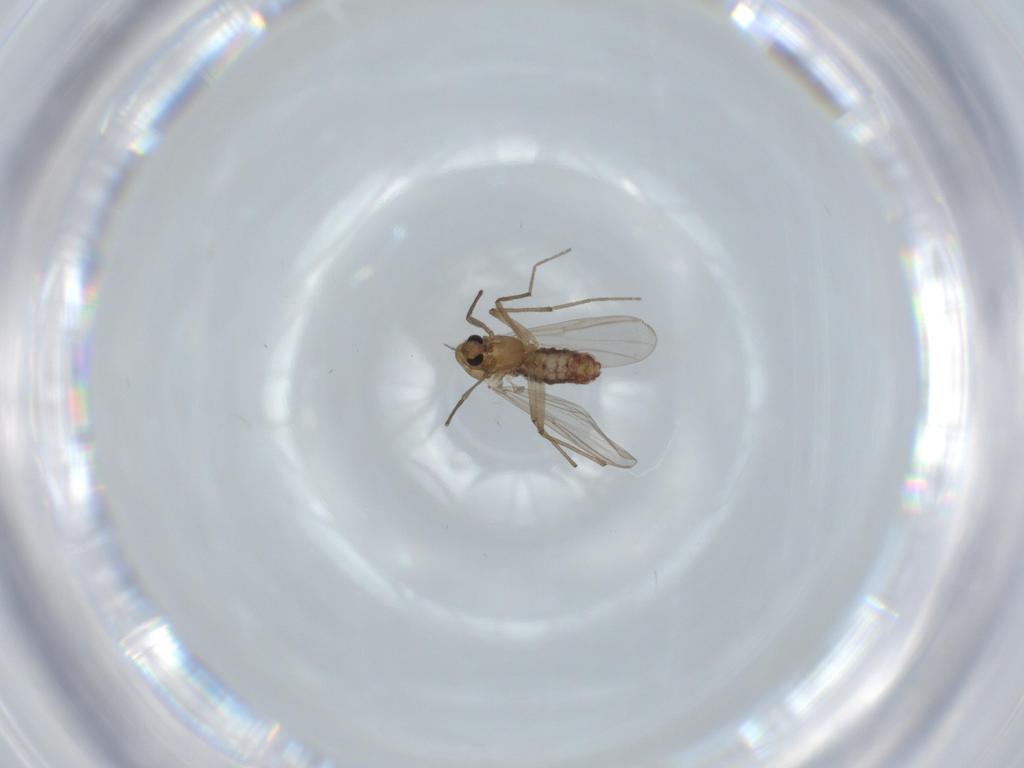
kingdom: Animalia
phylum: Arthropoda
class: Insecta
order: Diptera
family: Chironomidae
